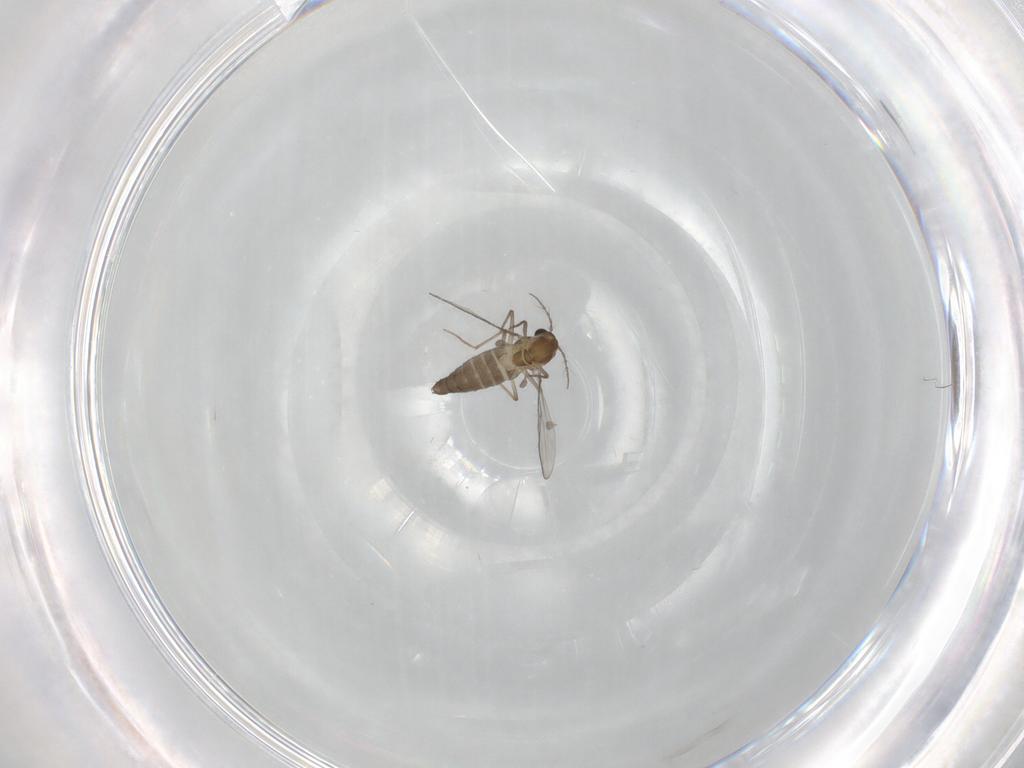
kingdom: Animalia
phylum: Arthropoda
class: Insecta
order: Diptera
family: Chironomidae
